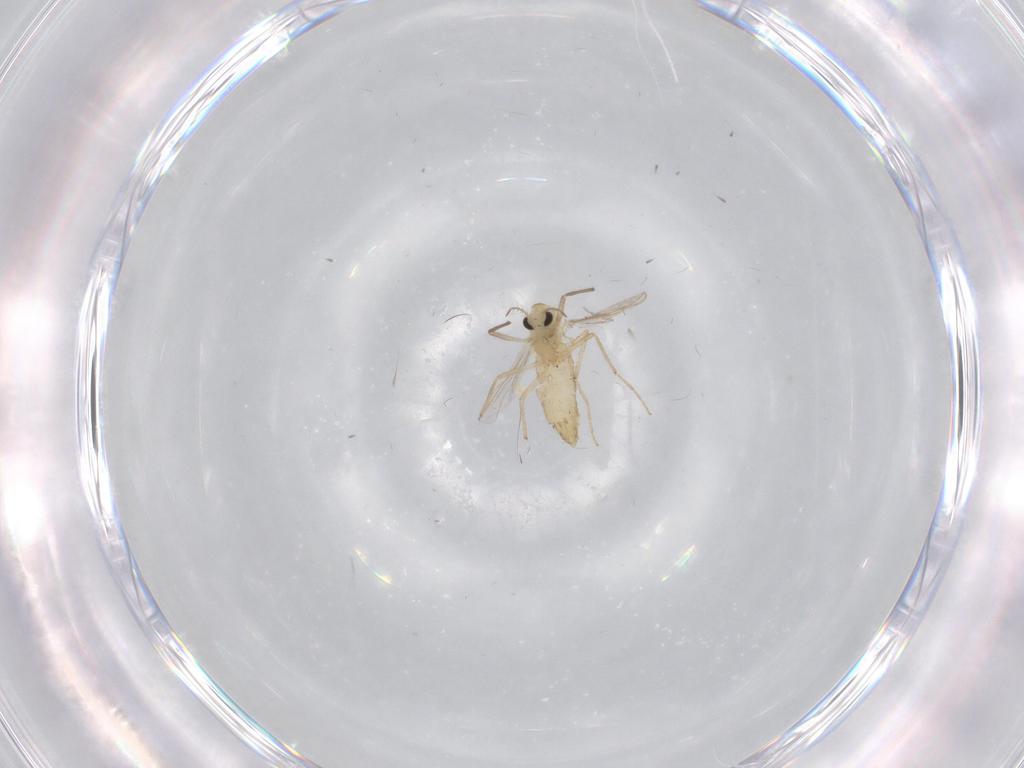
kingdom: Animalia
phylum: Arthropoda
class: Insecta
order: Diptera
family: Chironomidae
